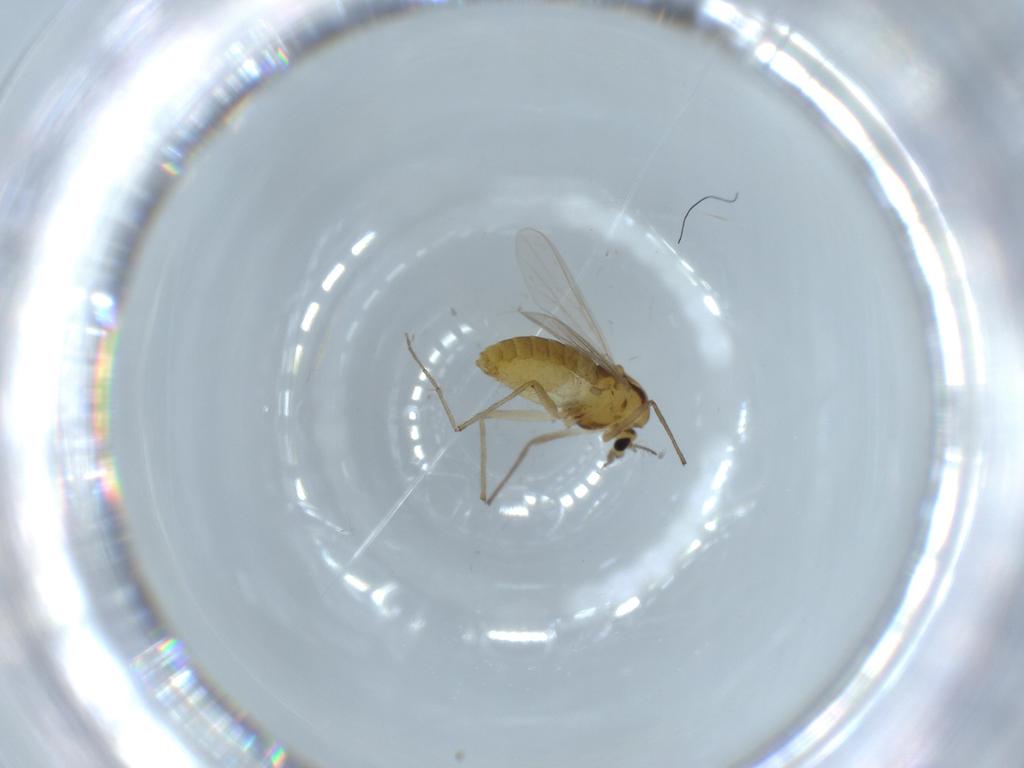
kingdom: Animalia
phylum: Arthropoda
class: Insecta
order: Diptera
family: Chironomidae
